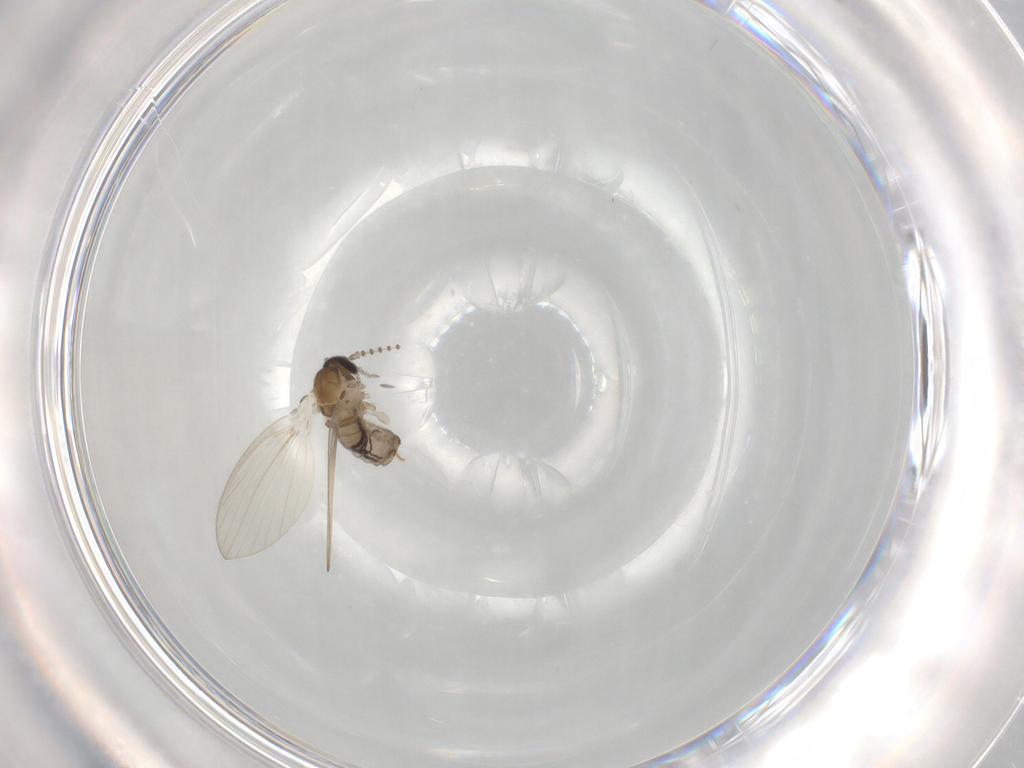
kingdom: Animalia
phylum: Arthropoda
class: Insecta
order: Diptera
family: Psychodidae
